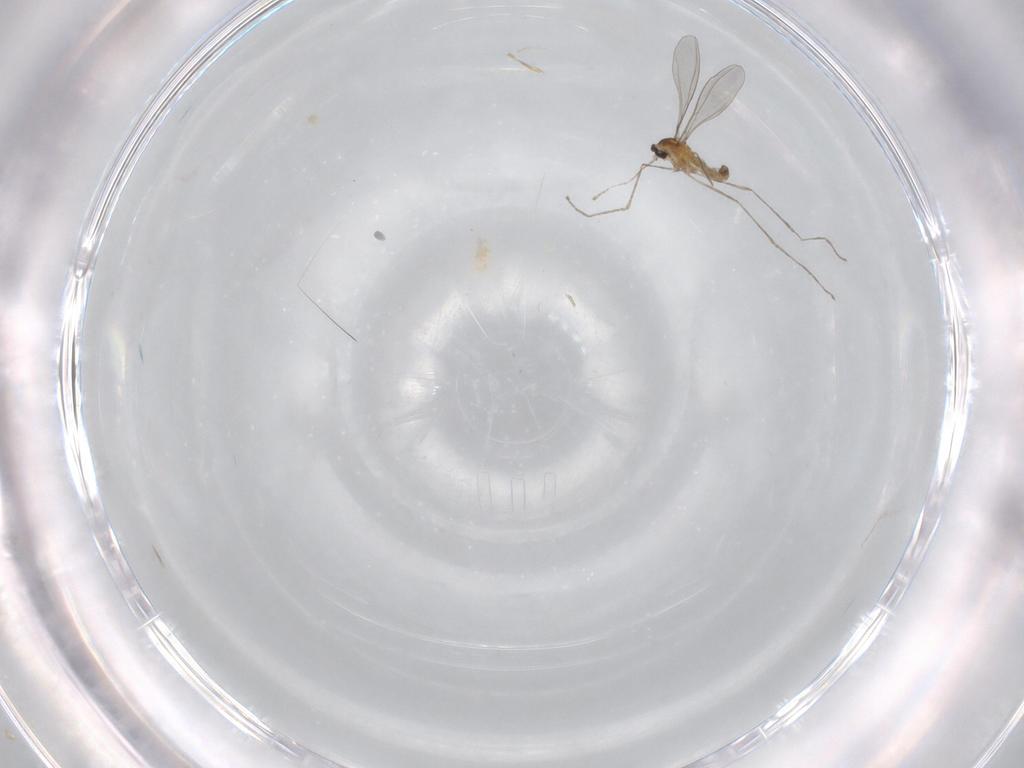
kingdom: Animalia
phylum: Arthropoda
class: Insecta
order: Diptera
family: Cecidomyiidae
